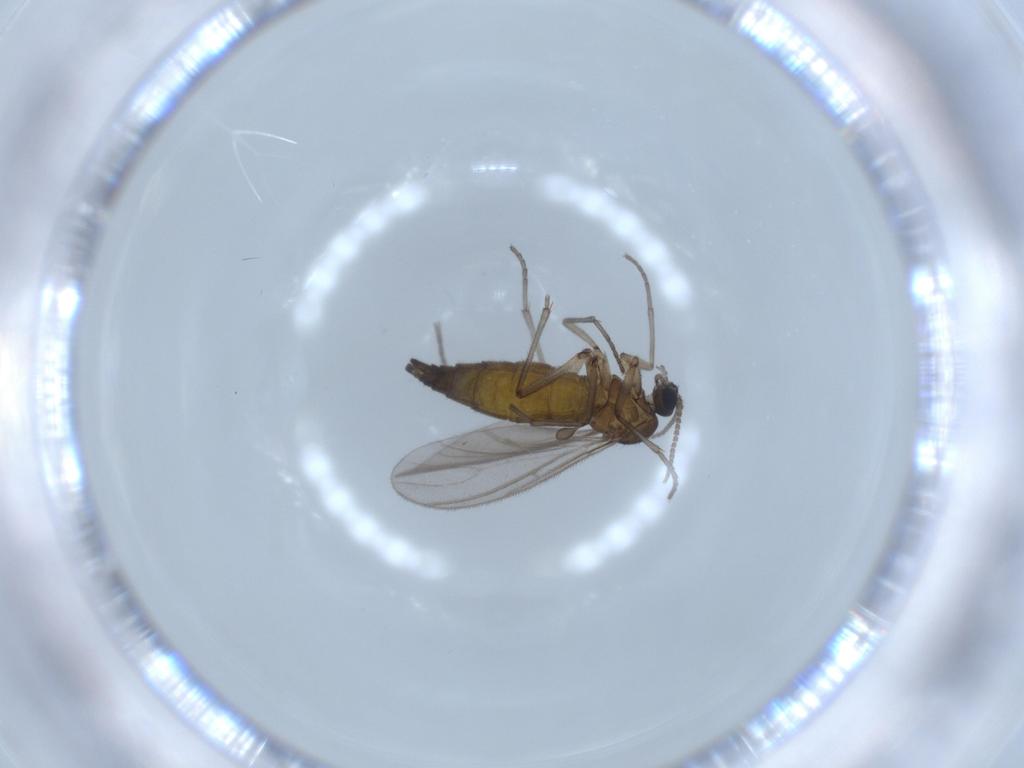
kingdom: Animalia
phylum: Arthropoda
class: Insecta
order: Diptera
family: Sciaridae
